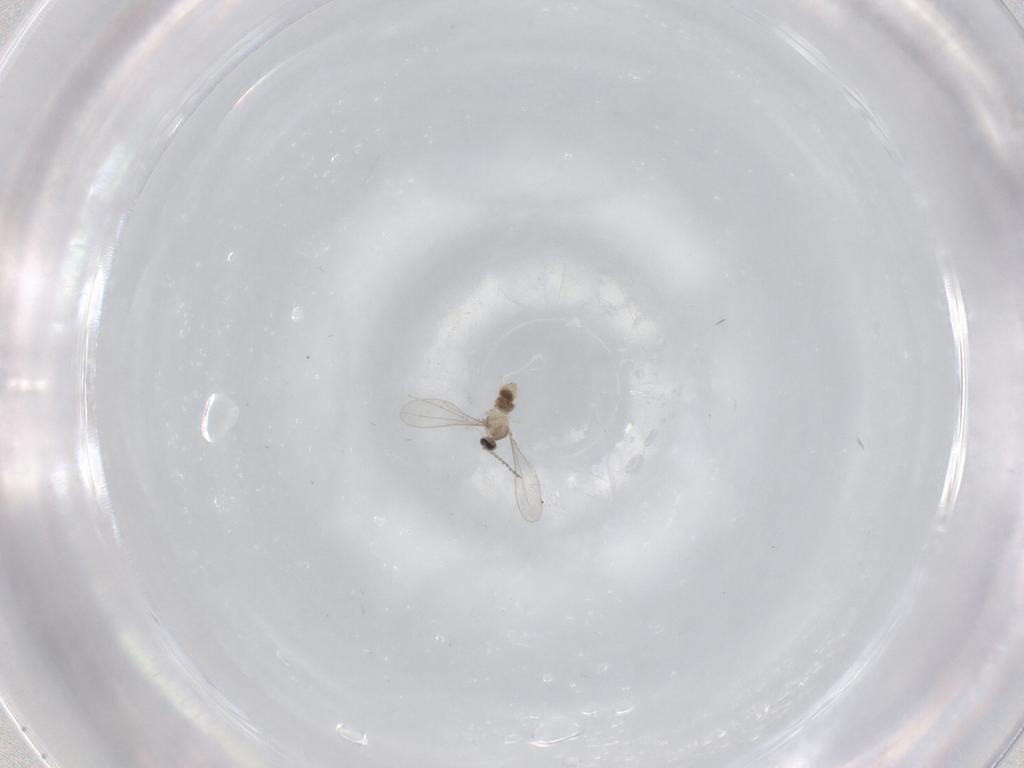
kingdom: Animalia
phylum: Arthropoda
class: Insecta
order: Diptera
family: Cecidomyiidae
